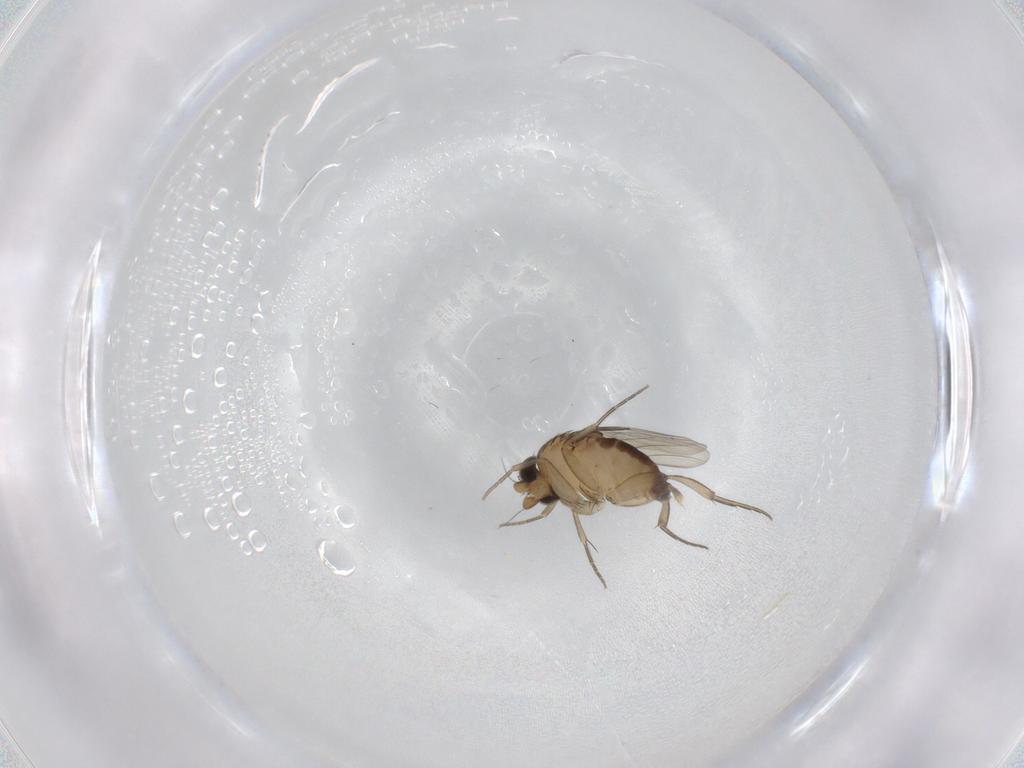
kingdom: Animalia
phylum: Arthropoda
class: Insecta
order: Diptera
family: Phoridae
